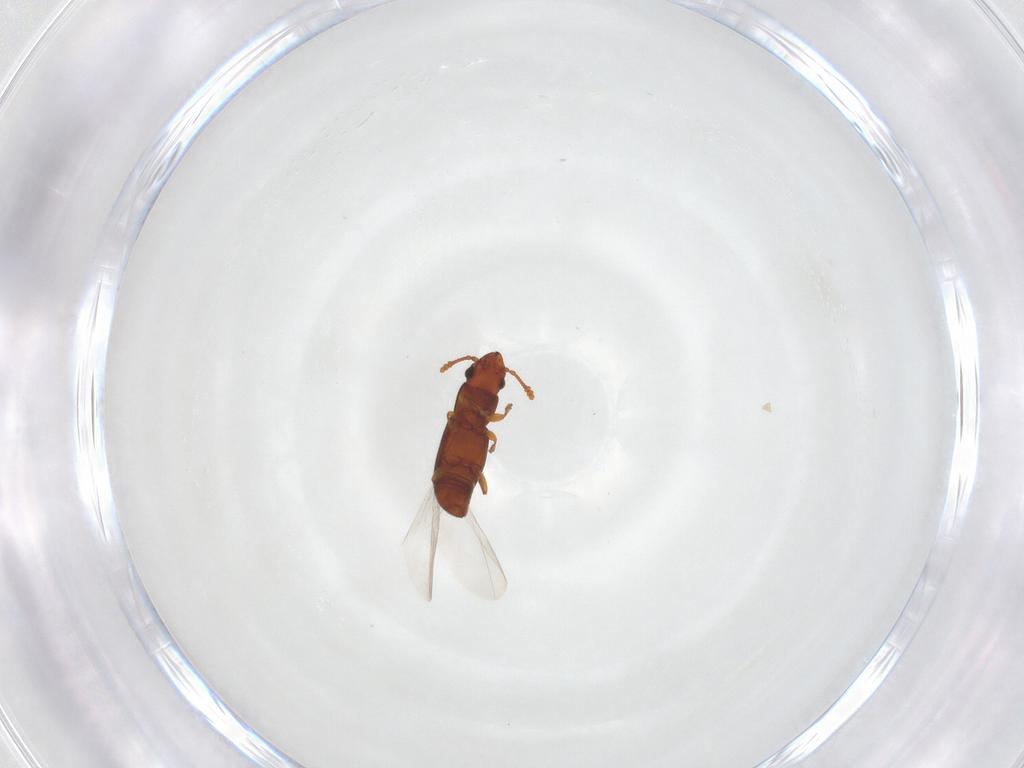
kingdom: Animalia
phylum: Arthropoda
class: Insecta
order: Coleoptera
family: Smicripidae
